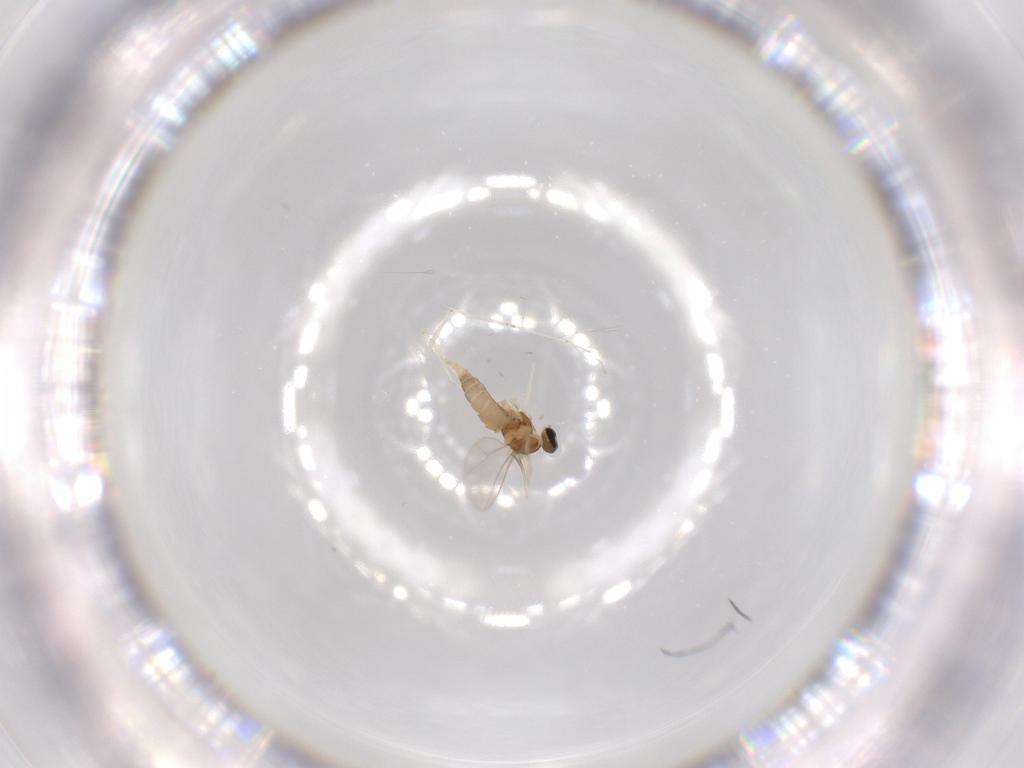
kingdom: Animalia
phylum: Arthropoda
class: Insecta
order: Diptera
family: Cecidomyiidae
